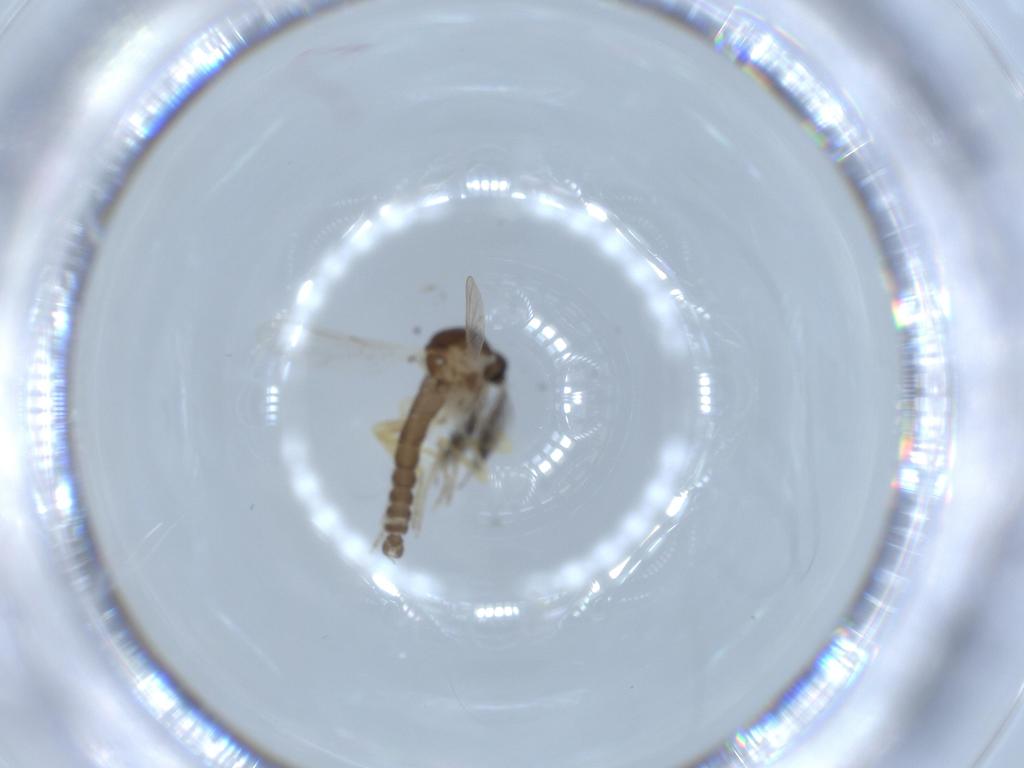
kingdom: Animalia
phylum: Arthropoda
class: Insecta
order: Diptera
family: Ceratopogonidae
